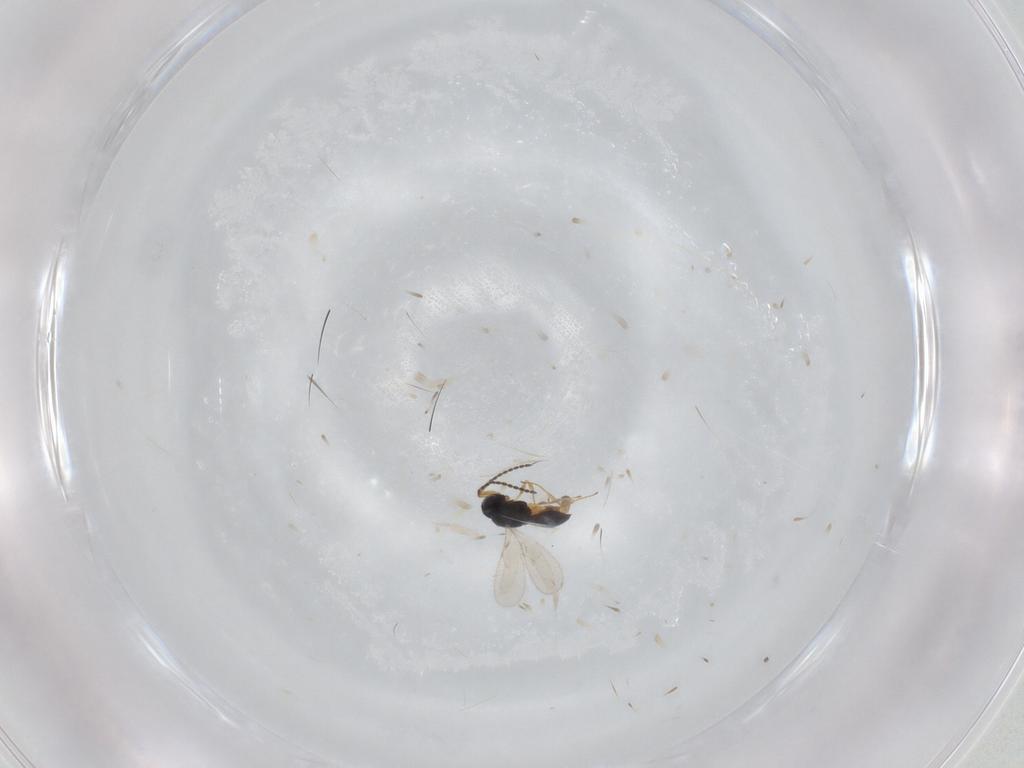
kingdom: Animalia
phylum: Arthropoda
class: Insecta
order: Hymenoptera
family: Scelionidae
